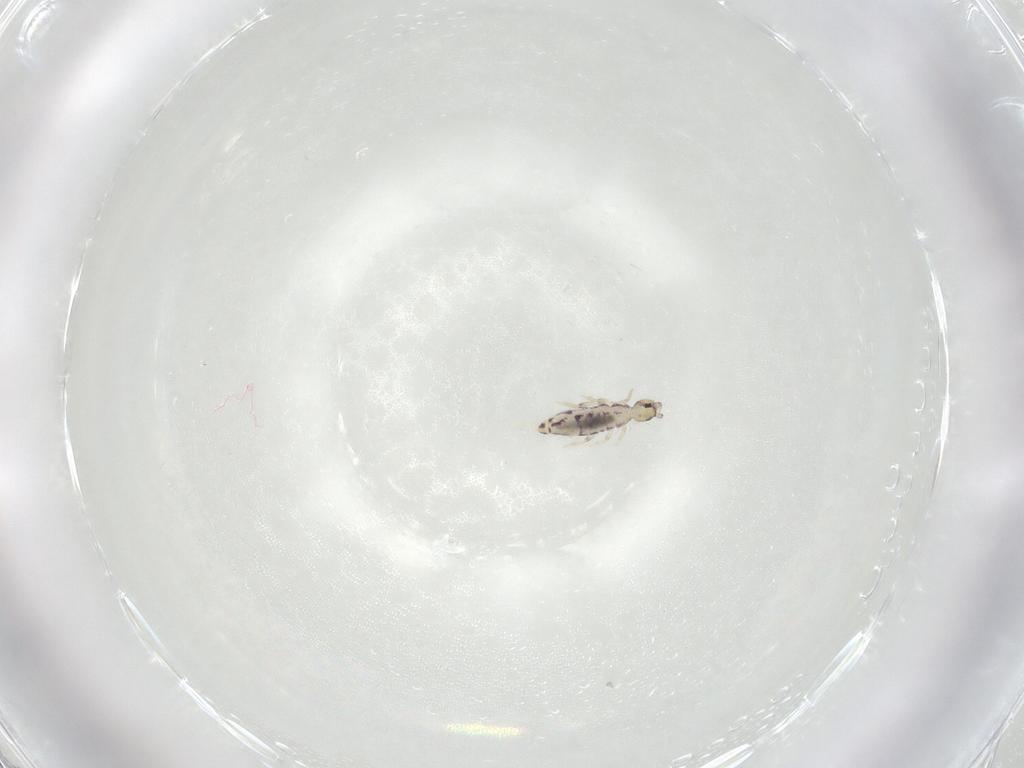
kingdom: Animalia
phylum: Arthropoda
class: Collembola
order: Entomobryomorpha
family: Entomobryidae
